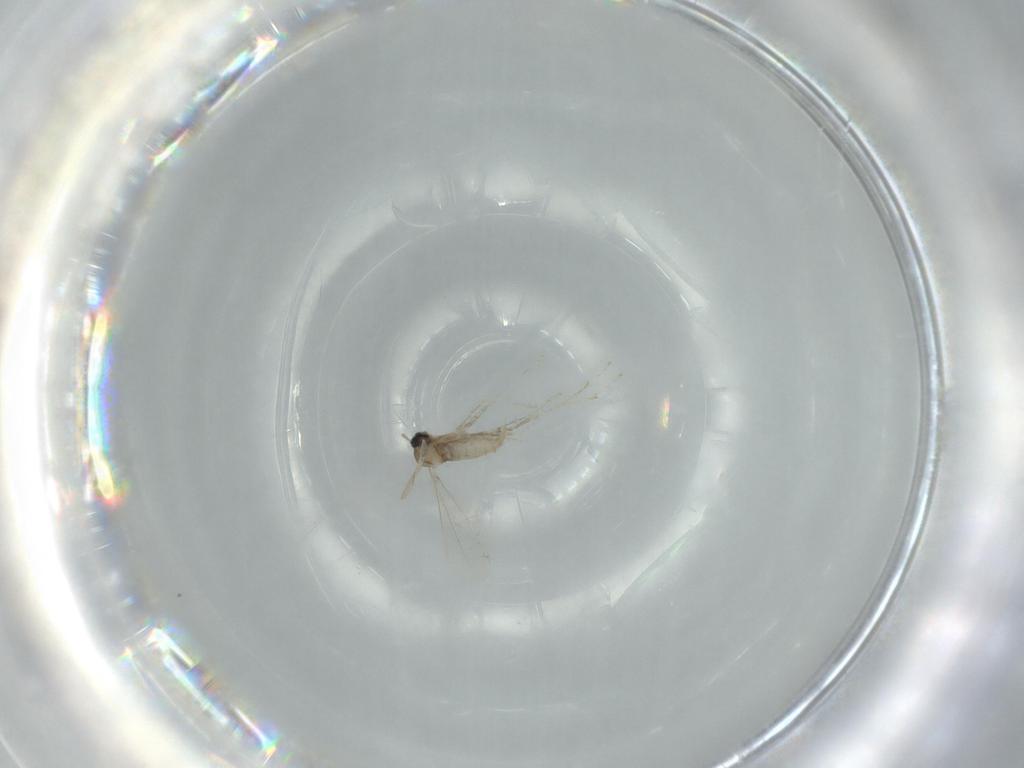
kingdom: Animalia
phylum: Arthropoda
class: Insecta
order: Diptera
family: Cecidomyiidae
